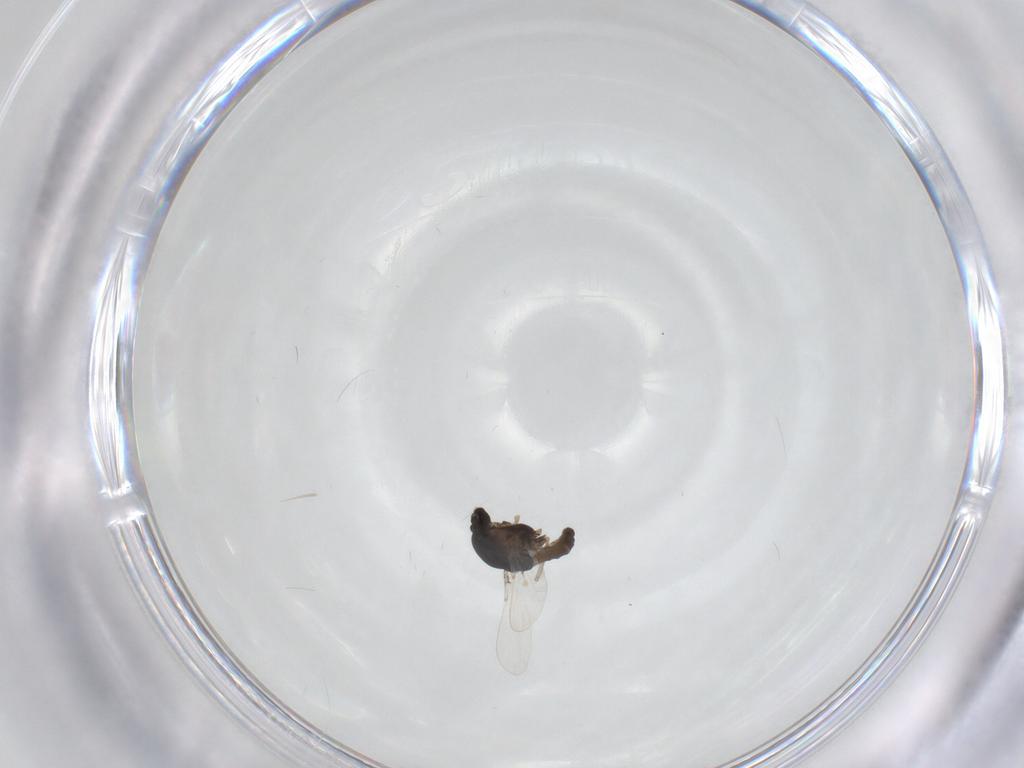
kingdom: Animalia
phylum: Arthropoda
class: Insecta
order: Diptera
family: Chironomidae
